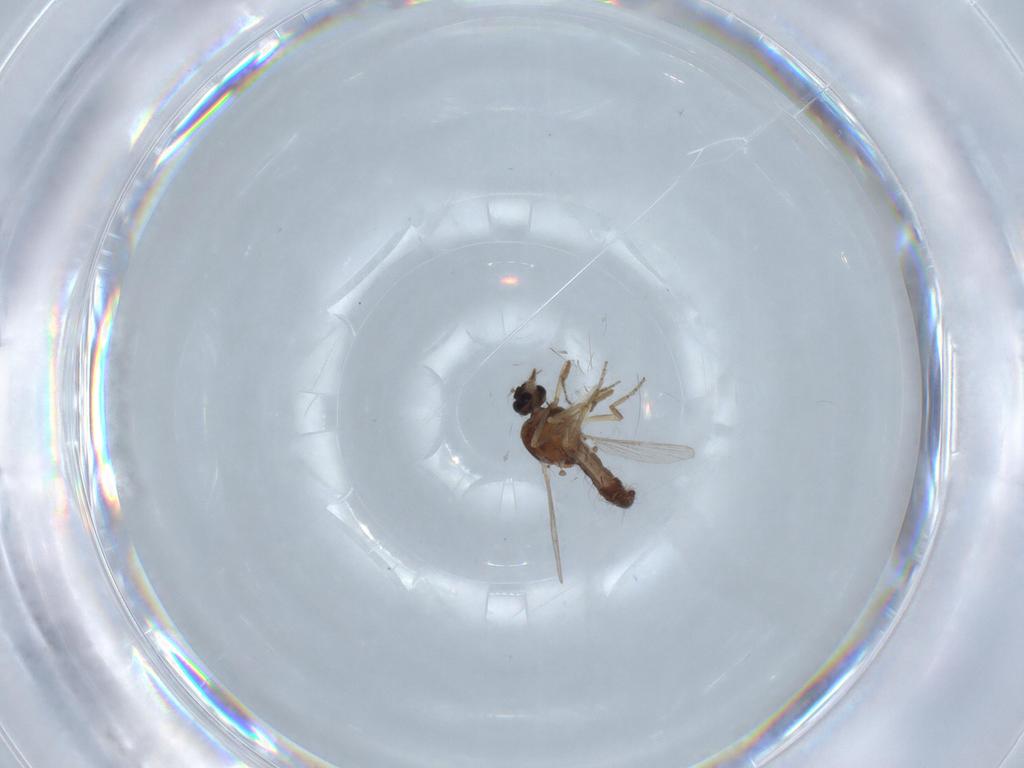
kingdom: Animalia
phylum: Arthropoda
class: Insecta
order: Diptera
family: Ceratopogonidae
